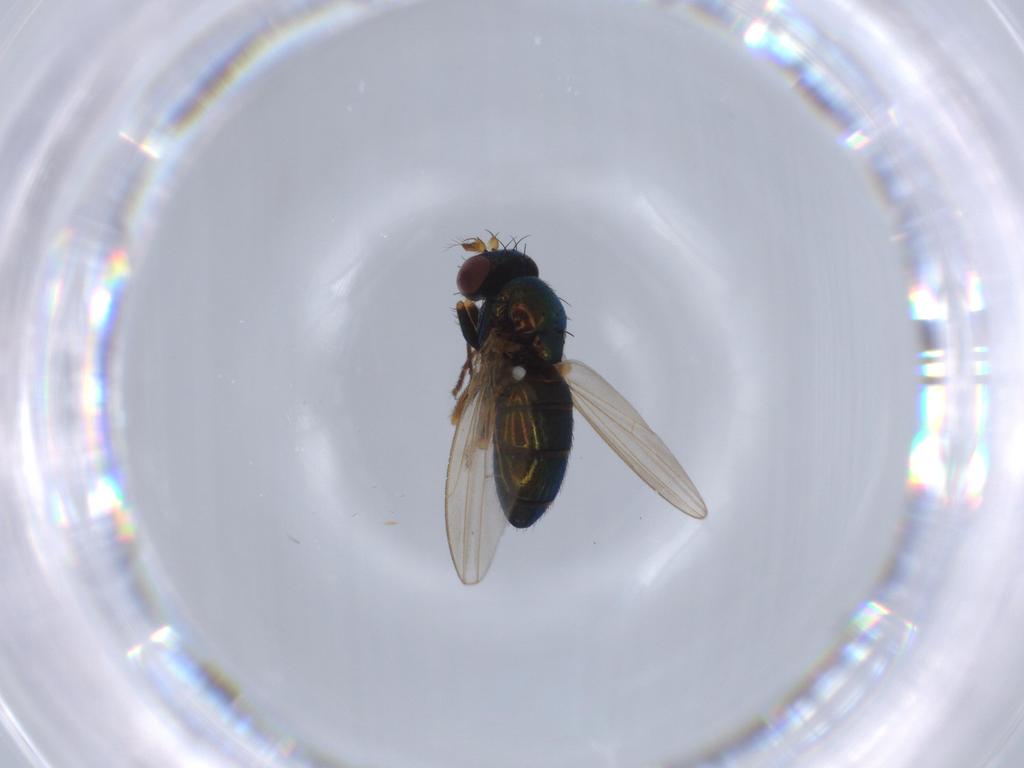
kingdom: Animalia
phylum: Arthropoda
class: Insecta
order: Diptera
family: Ephydridae
